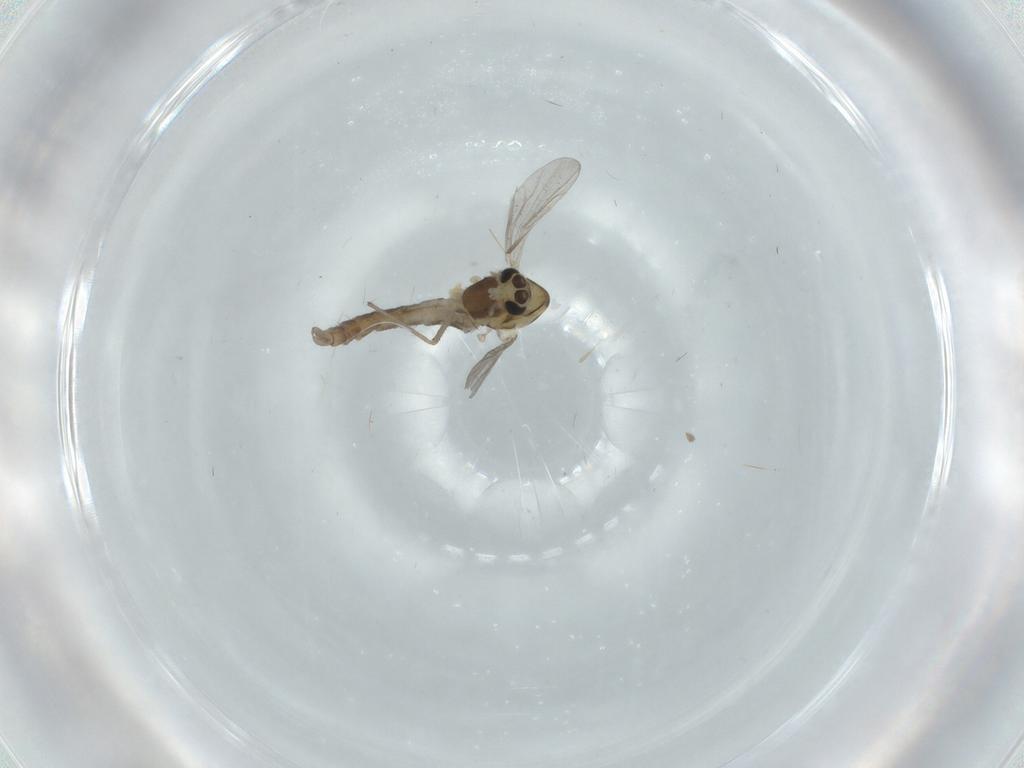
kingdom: Animalia
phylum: Arthropoda
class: Insecta
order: Diptera
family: Chironomidae
